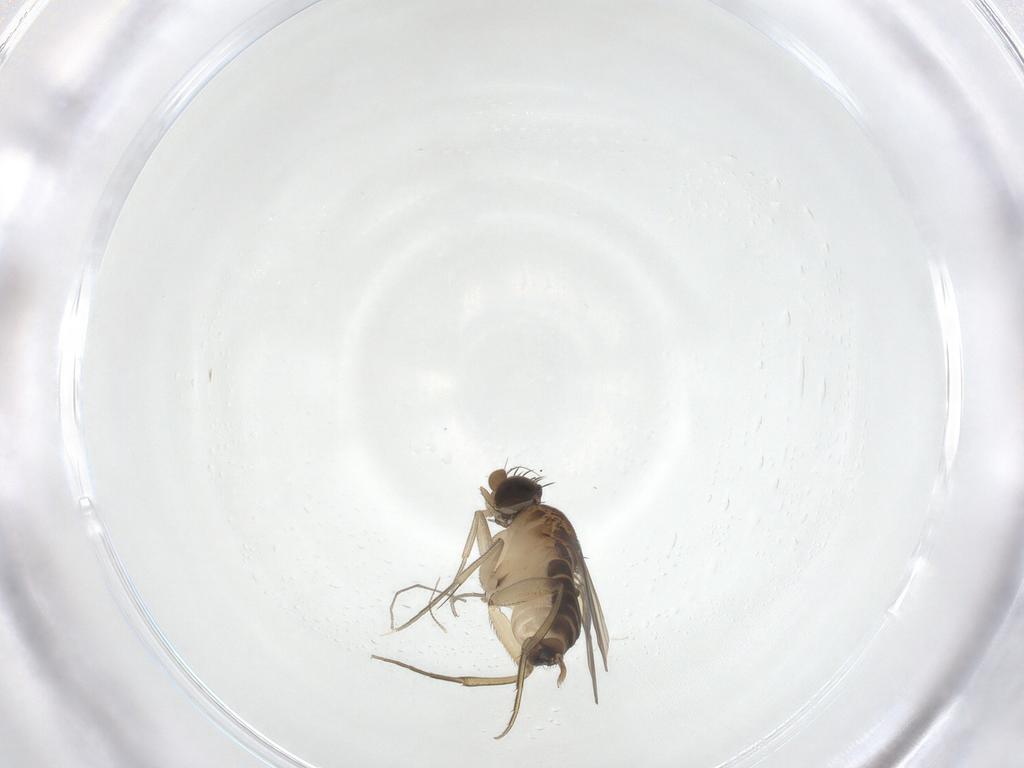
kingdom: Animalia
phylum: Arthropoda
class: Insecta
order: Diptera
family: Phoridae
